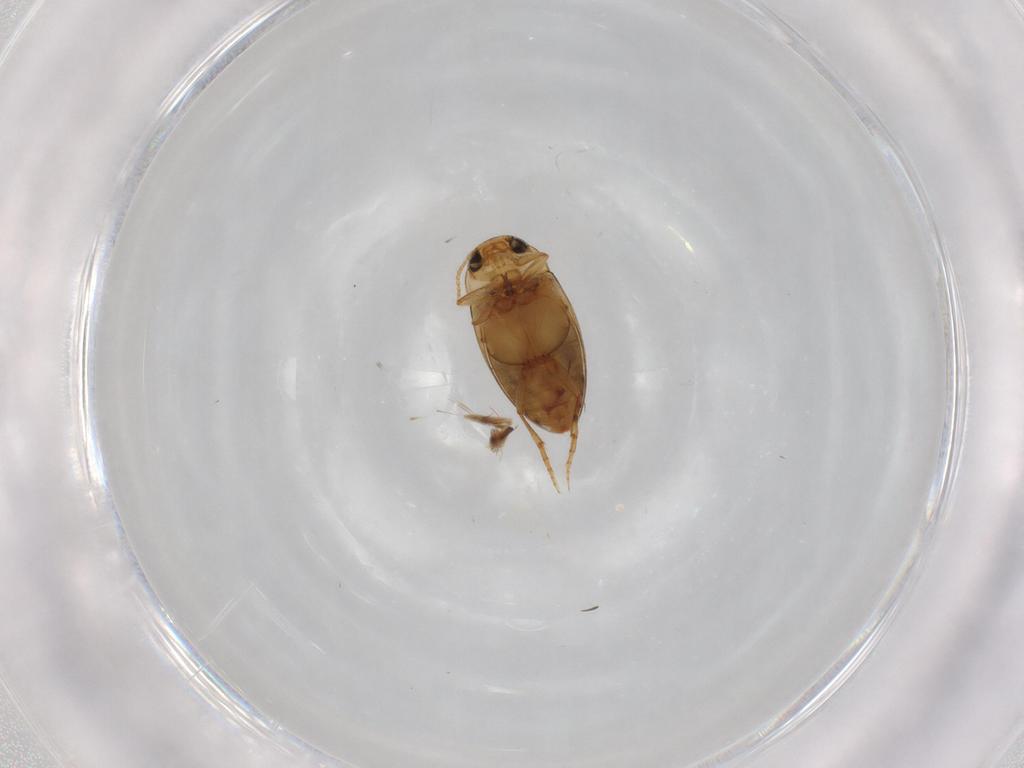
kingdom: Animalia
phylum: Arthropoda
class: Insecta
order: Coleoptera
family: Dytiscidae
